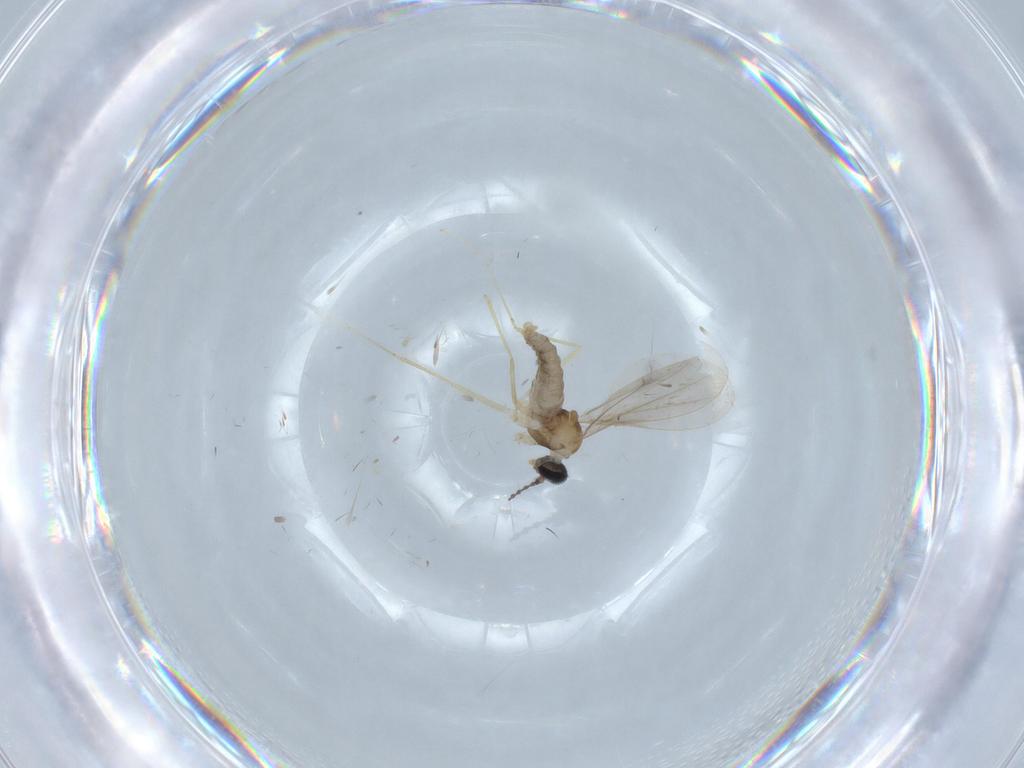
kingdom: Animalia
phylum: Arthropoda
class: Insecta
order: Diptera
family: Cecidomyiidae
